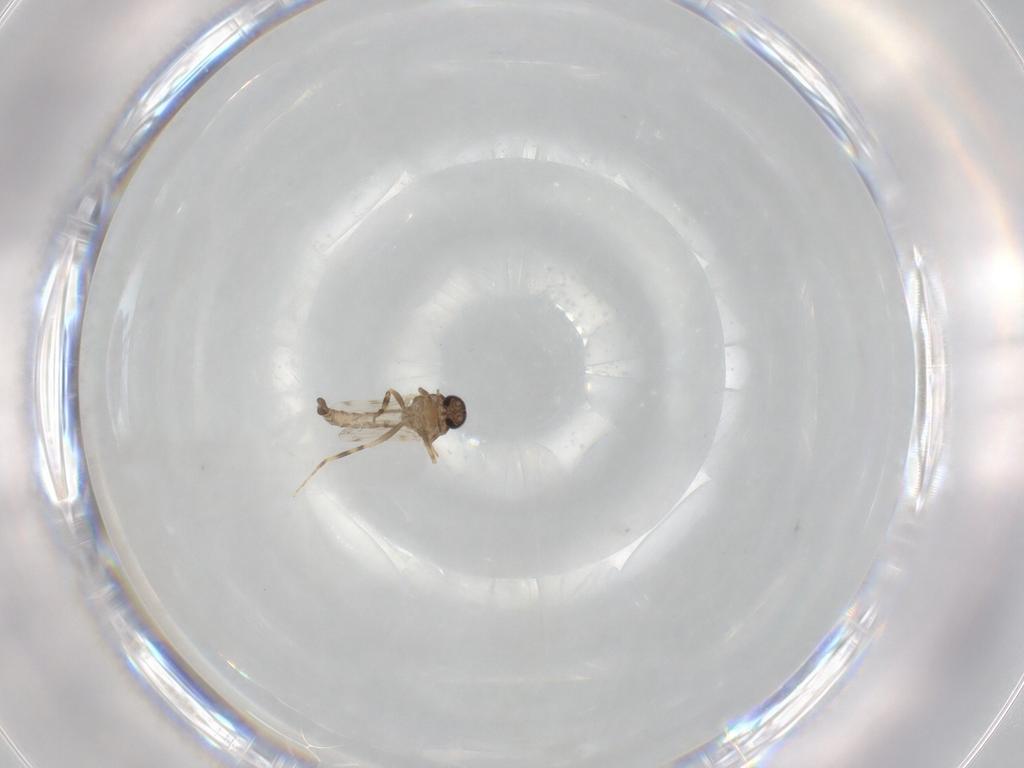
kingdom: Animalia
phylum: Arthropoda
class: Insecta
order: Diptera
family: Ceratopogonidae
